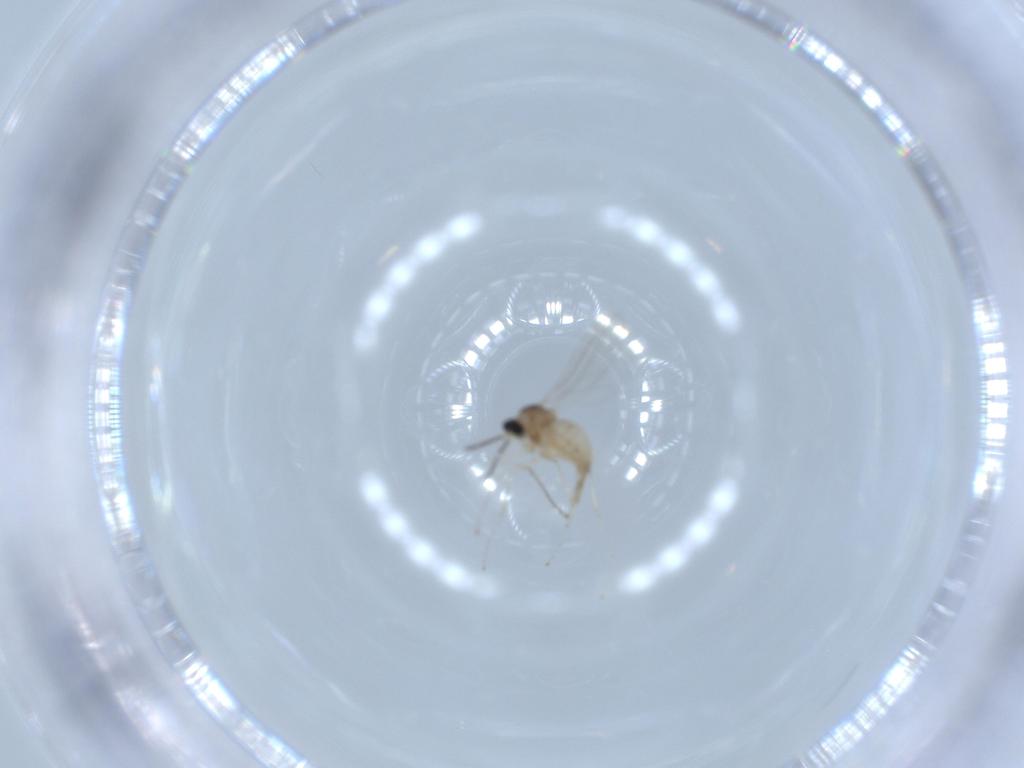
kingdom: Animalia
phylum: Arthropoda
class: Insecta
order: Diptera
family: Cecidomyiidae
